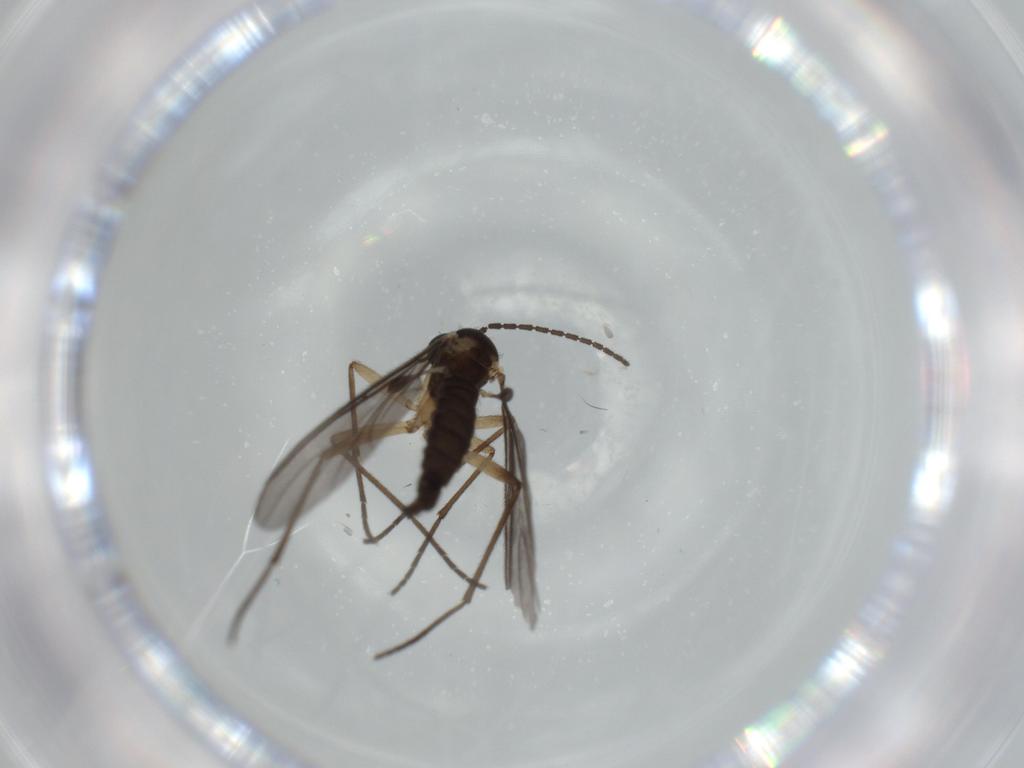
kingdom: Animalia
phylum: Arthropoda
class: Insecta
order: Diptera
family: Sciaridae
